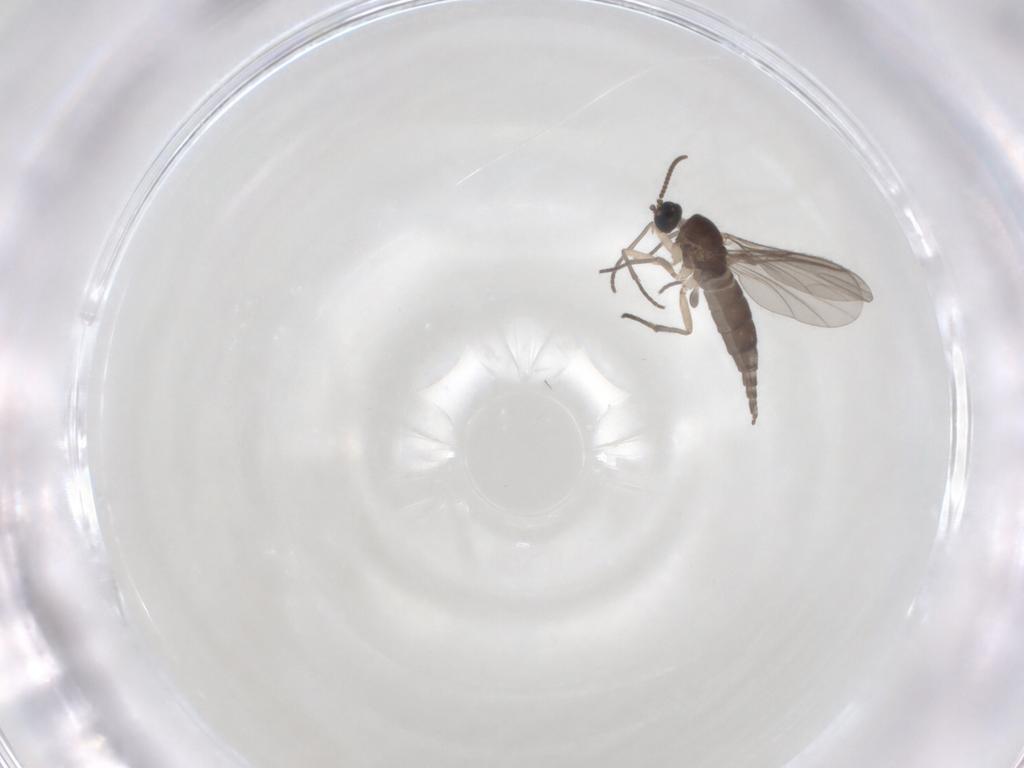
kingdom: Animalia
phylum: Arthropoda
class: Insecta
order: Diptera
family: Sciaridae
